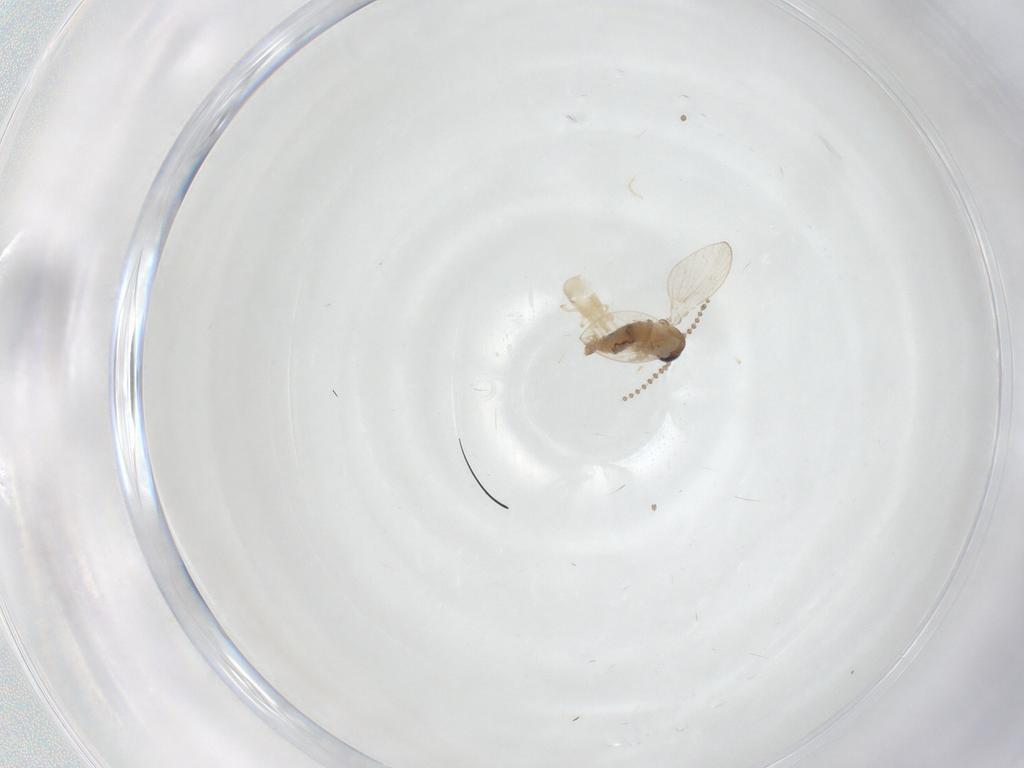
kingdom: Animalia
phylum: Arthropoda
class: Insecta
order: Diptera
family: Psychodidae
